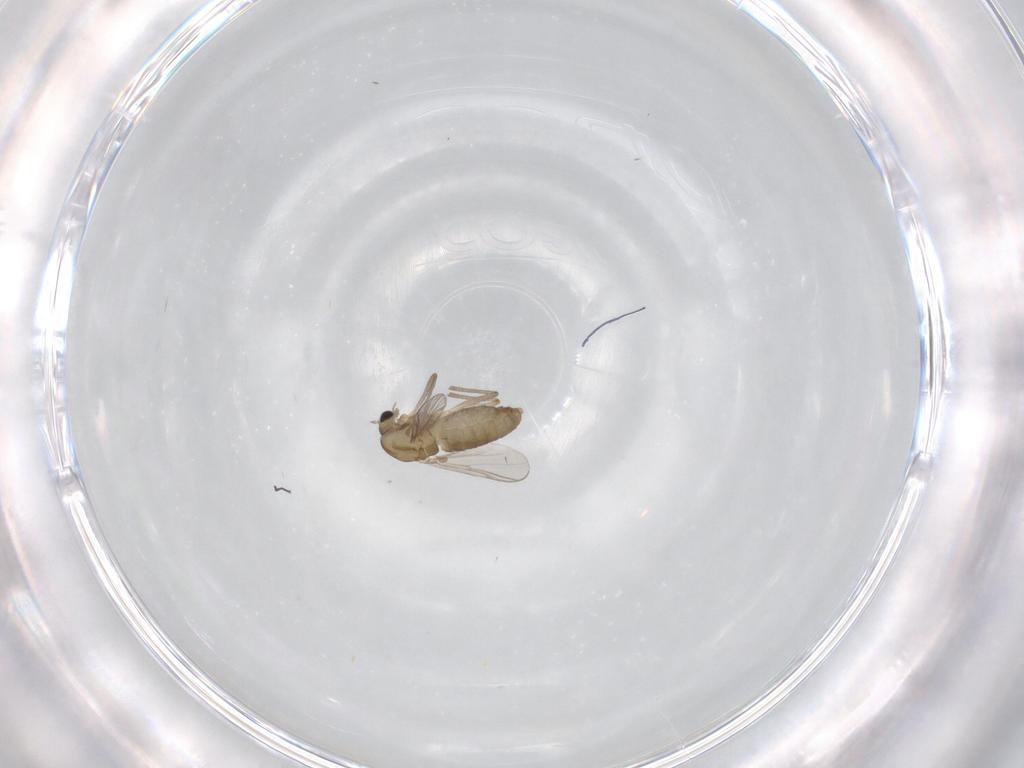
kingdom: Animalia
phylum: Arthropoda
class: Insecta
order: Diptera
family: Chironomidae
